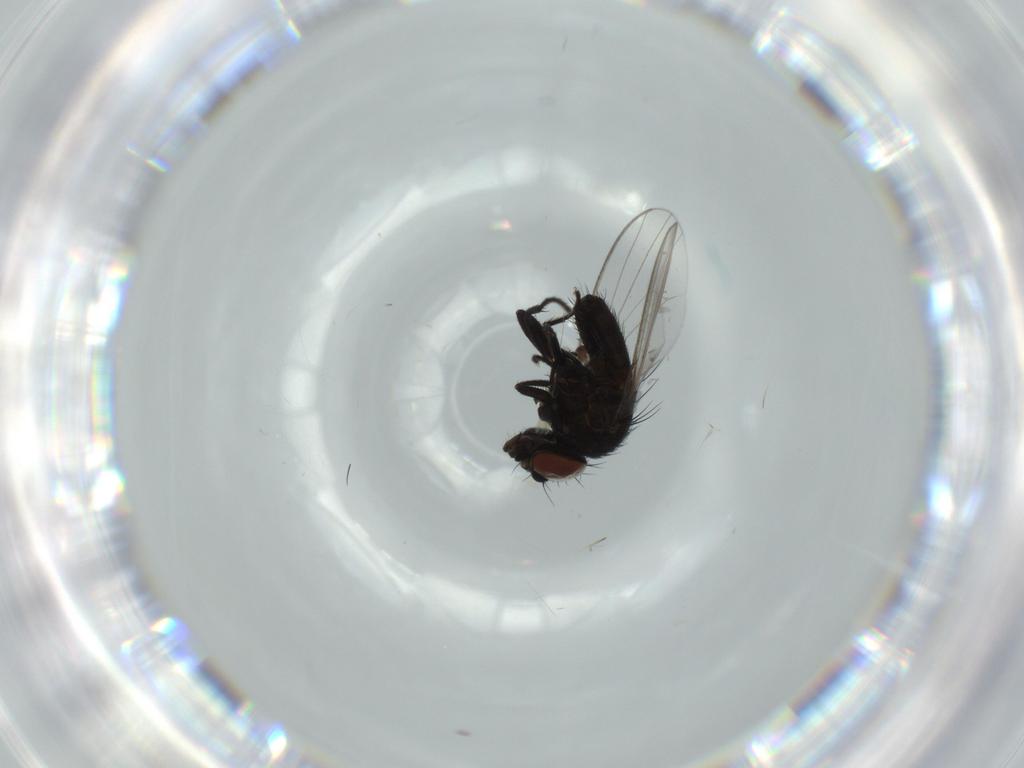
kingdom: Animalia
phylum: Arthropoda
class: Insecta
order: Diptera
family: Milichiidae
